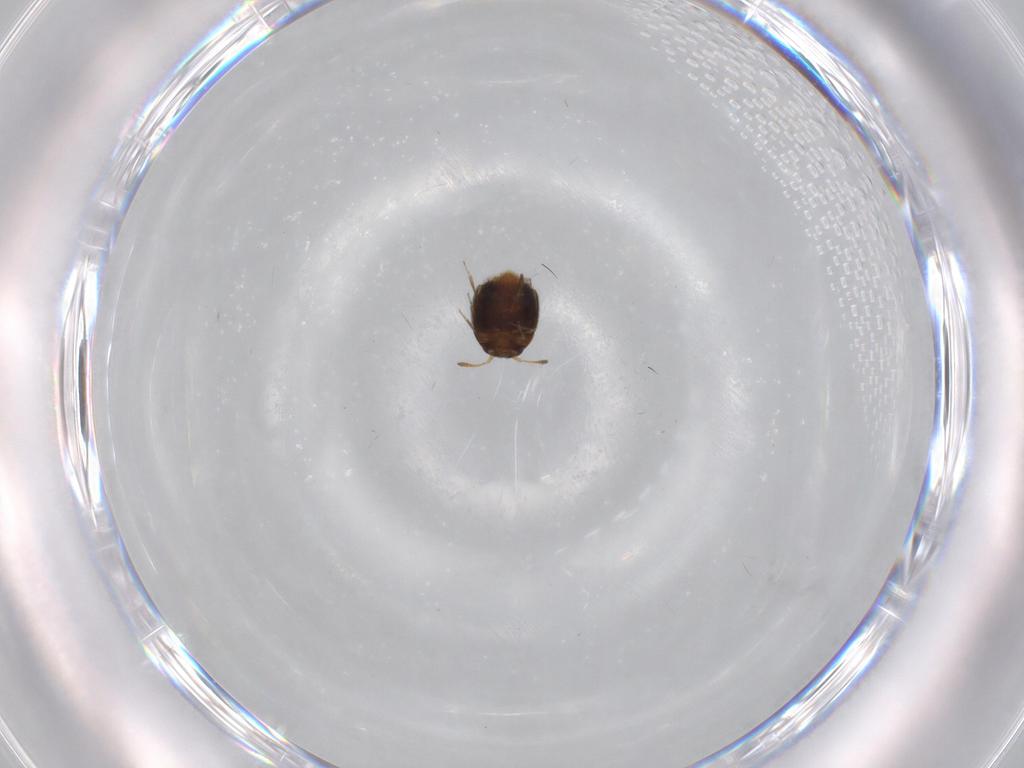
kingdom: Animalia
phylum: Arthropoda
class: Insecta
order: Coleoptera
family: Staphylinidae
